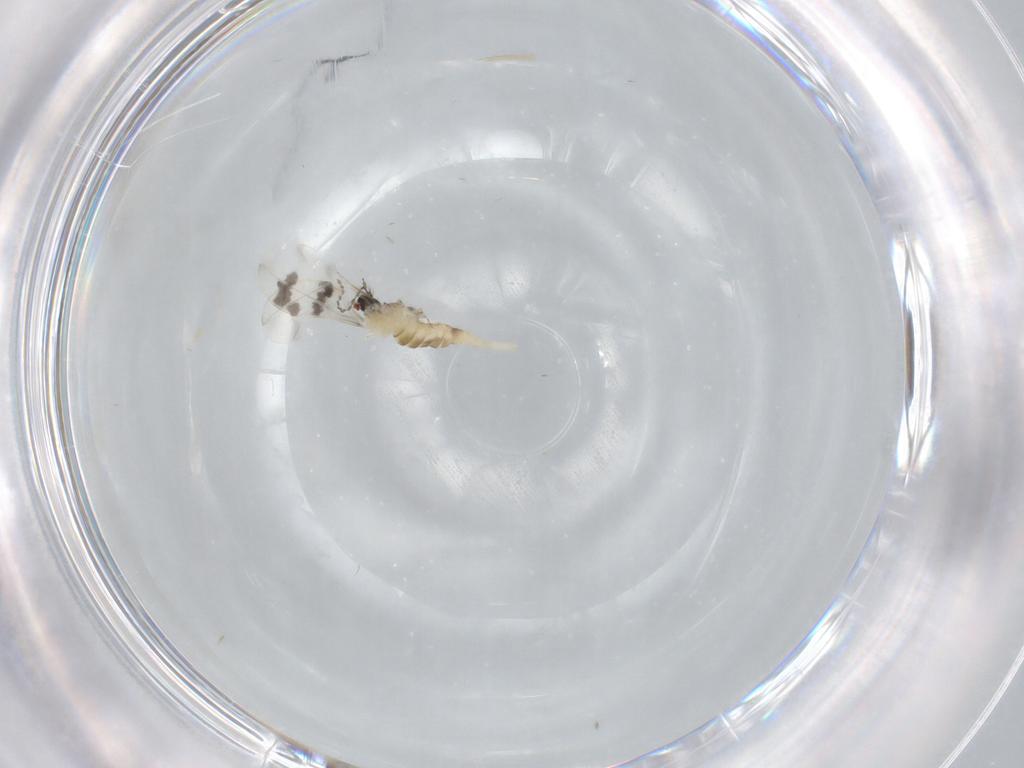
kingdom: Animalia
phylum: Arthropoda
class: Insecta
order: Diptera
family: Cecidomyiidae
